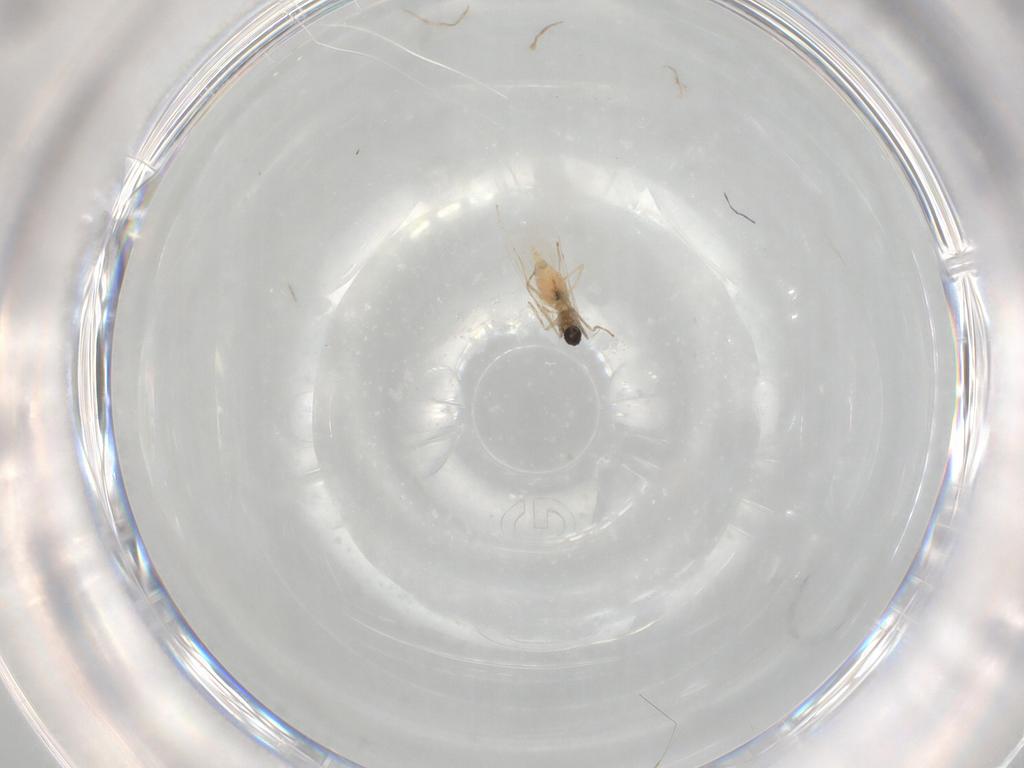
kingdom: Animalia
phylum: Arthropoda
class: Insecta
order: Diptera
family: Cecidomyiidae
